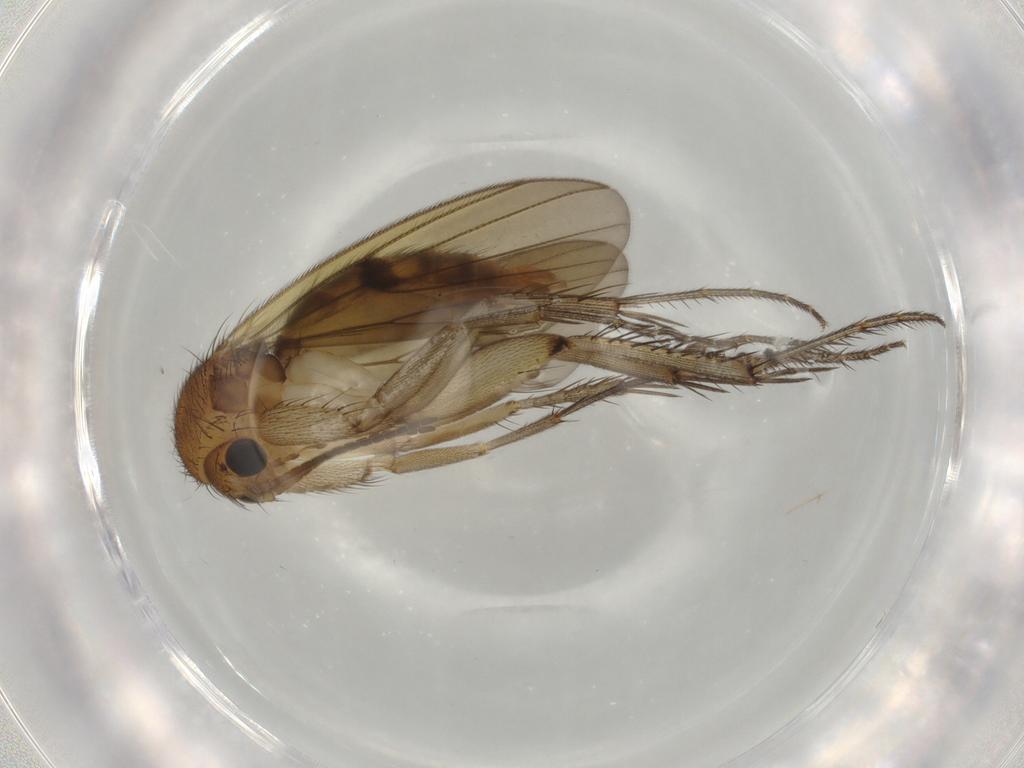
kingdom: Animalia
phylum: Arthropoda
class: Insecta
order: Diptera
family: Mycetophilidae
